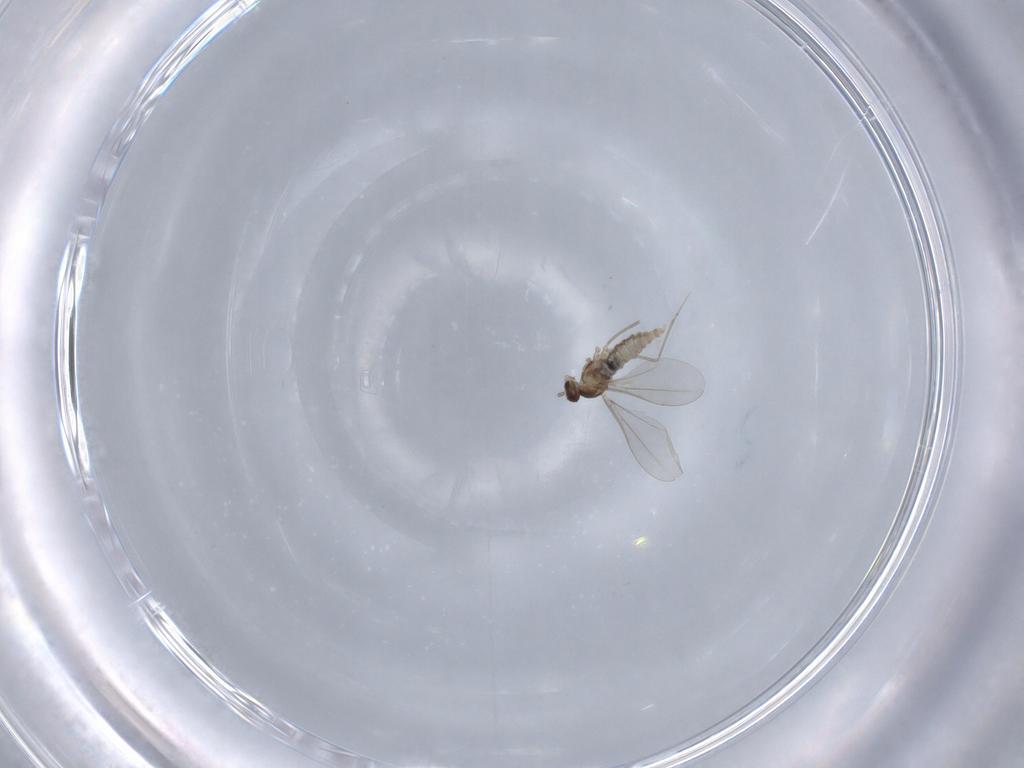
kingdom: Animalia
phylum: Arthropoda
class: Insecta
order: Diptera
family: Cecidomyiidae
